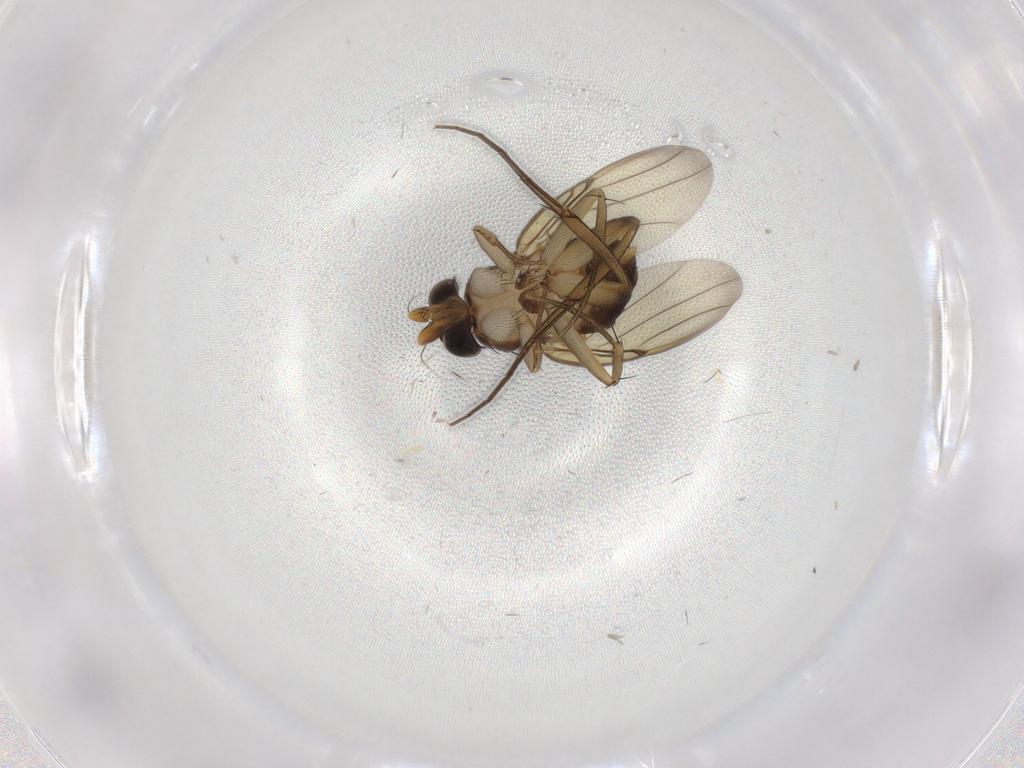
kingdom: Animalia
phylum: Arthropoda
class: Insecta
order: Diptera
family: Phoridae
